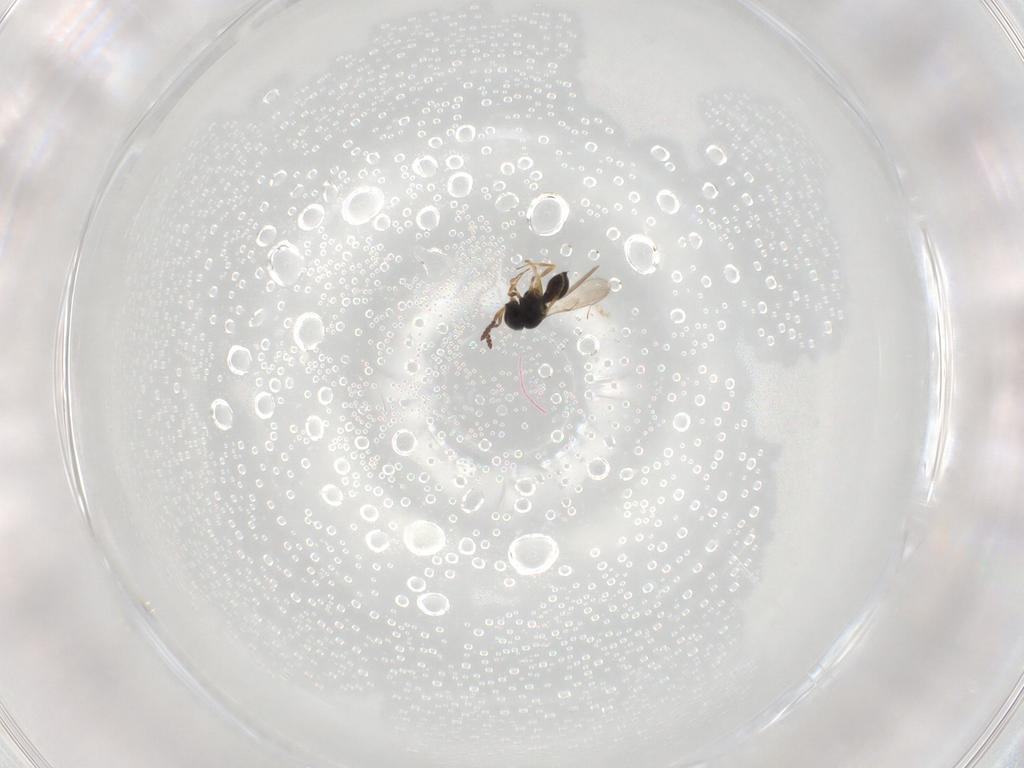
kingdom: Animalia
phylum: Arthropoda
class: Insecta
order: Hymenoptera
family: Scelionidae
